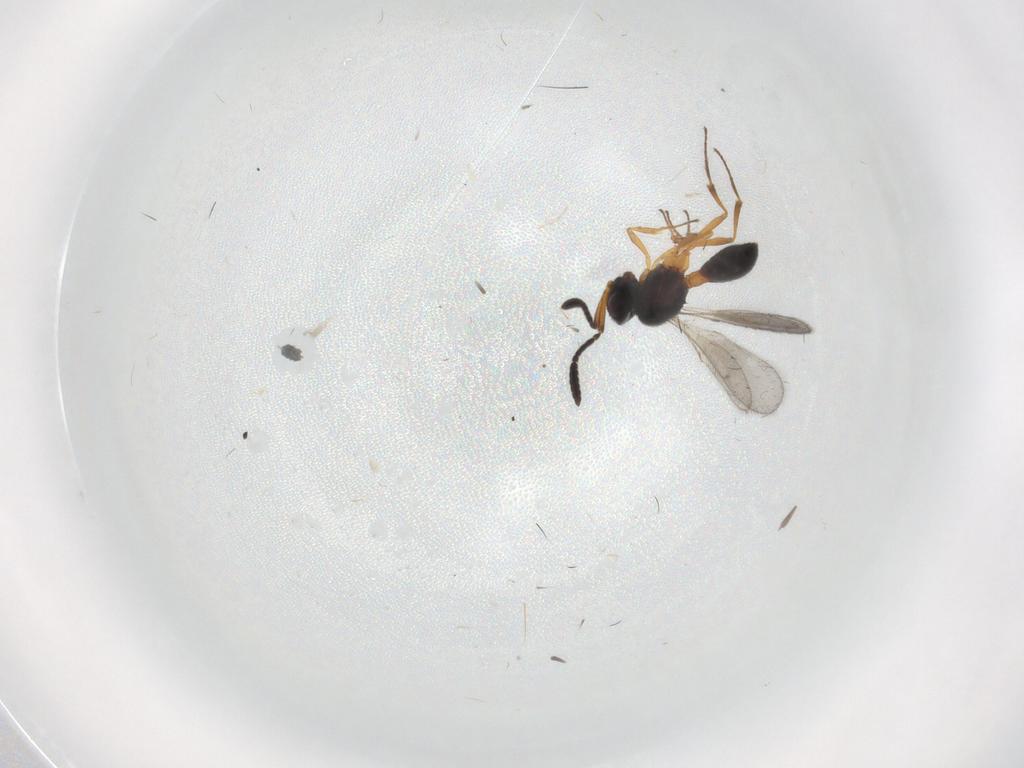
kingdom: Animalia
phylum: Arthropoda
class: Insecta
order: Hymenoptera
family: Scelionidae
